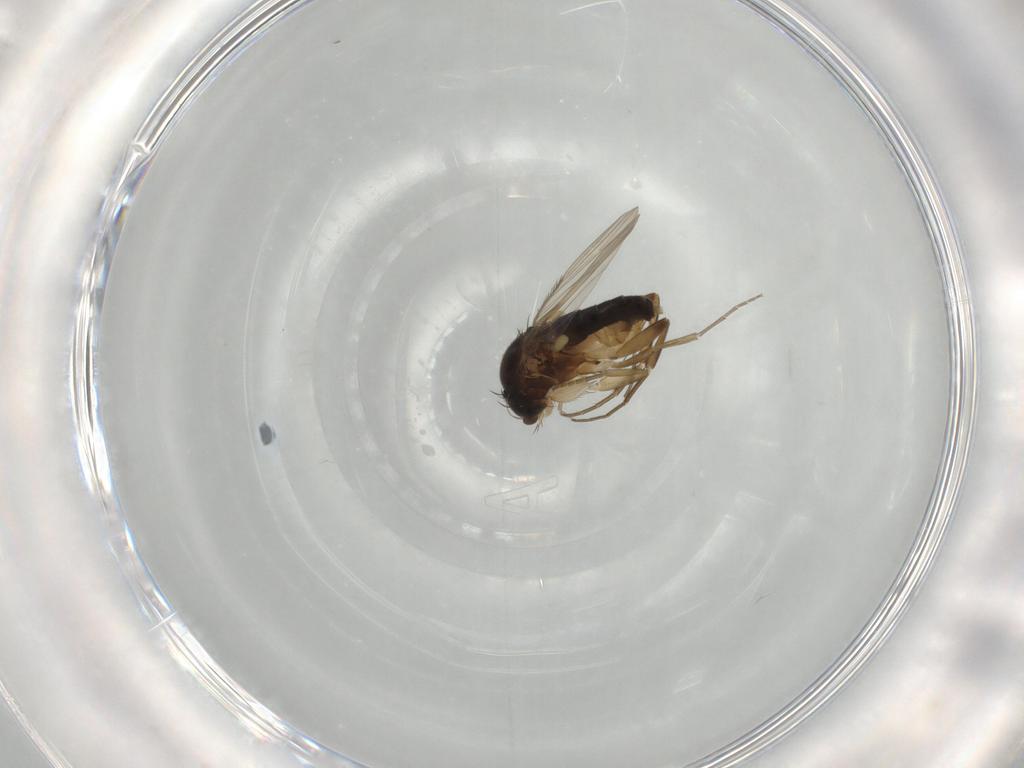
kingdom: Animalia
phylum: Arthropoda
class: Insecta
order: Diptera
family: Phoridae
